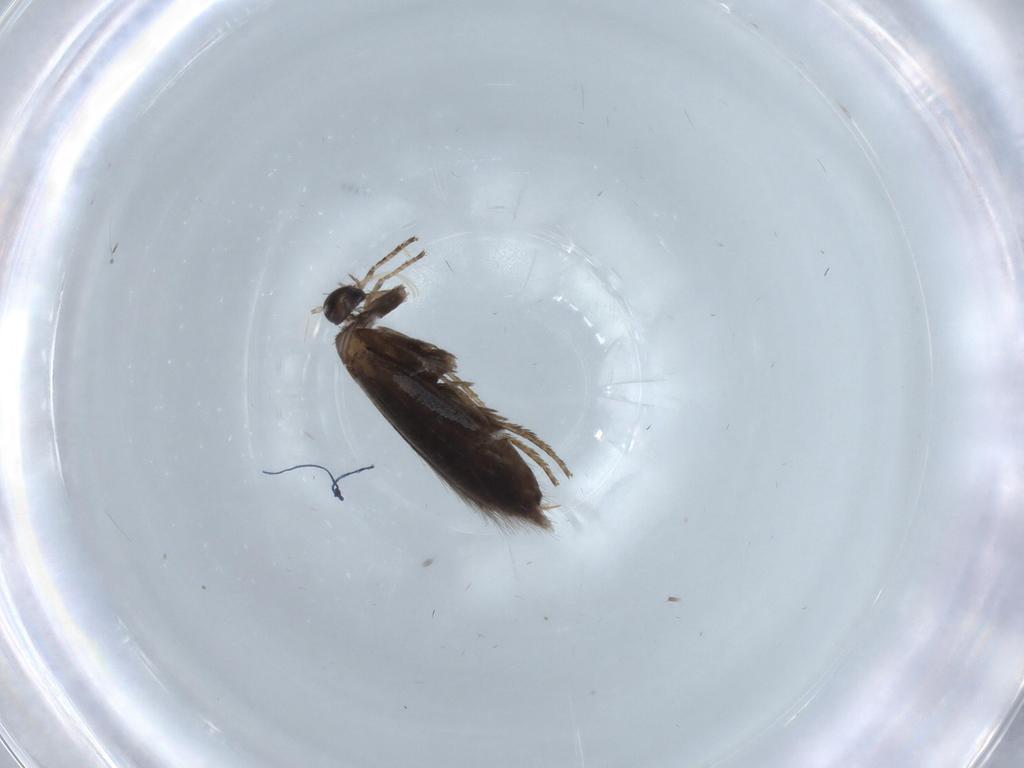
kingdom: Animalia
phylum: Arthropoda
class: Insecta
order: Lepidoptera
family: Heliozelidae
